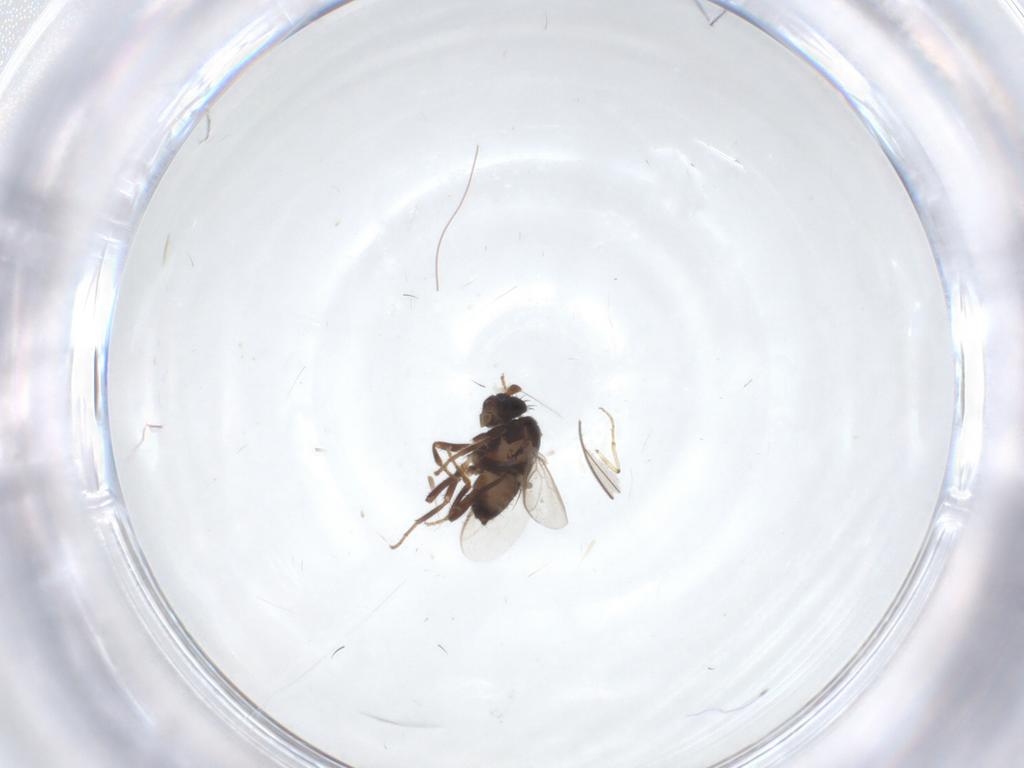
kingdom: Animalia
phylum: Arthropoda
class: Insecta
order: Diptera
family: Sphaeroceridae
